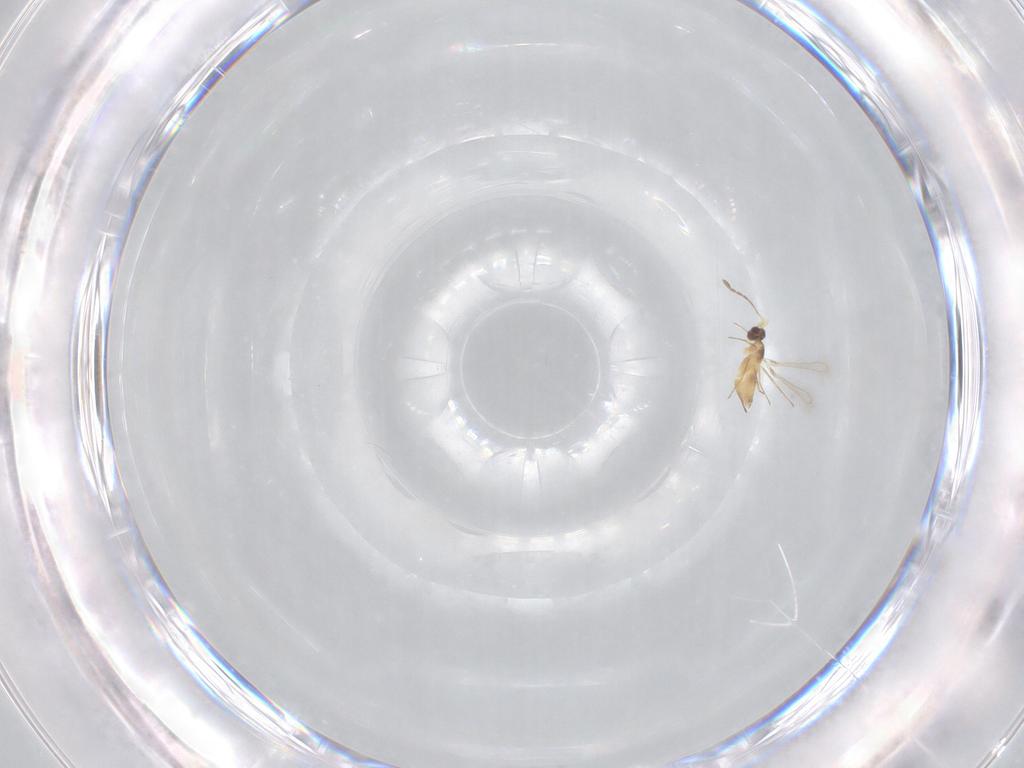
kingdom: Animalia
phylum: Arthropoda
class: Insecta
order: Hymenoptera
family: Mymaridae
